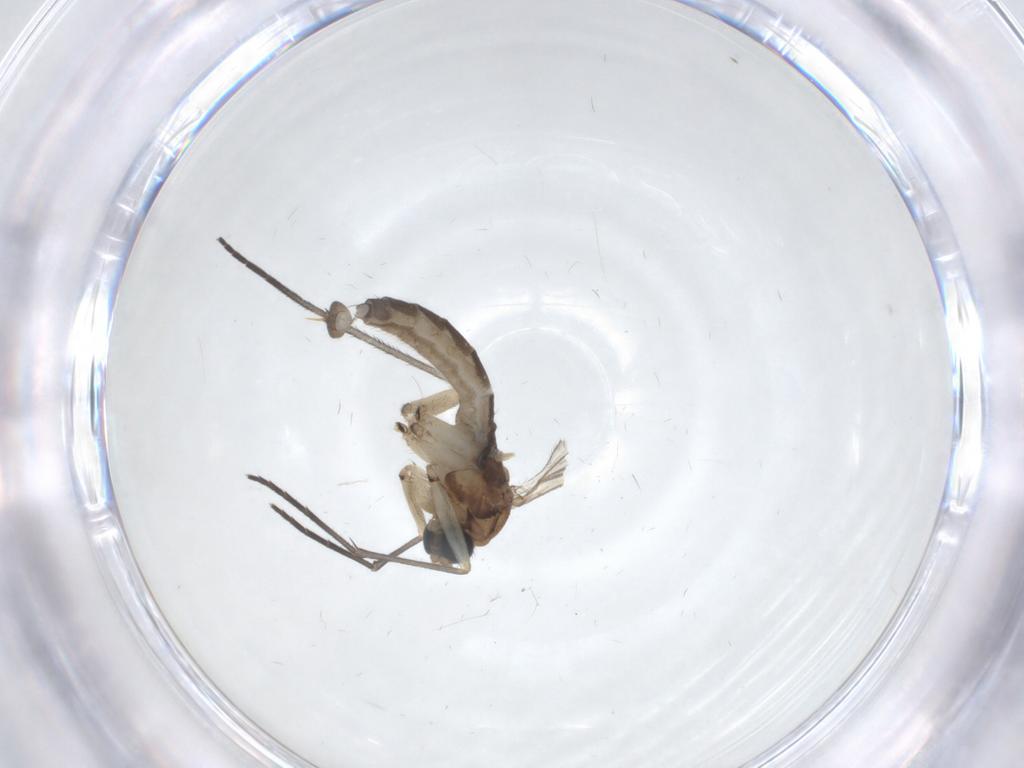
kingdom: Animalia
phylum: Arthropoda
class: Insecta
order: Diptera
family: Sciaridae
